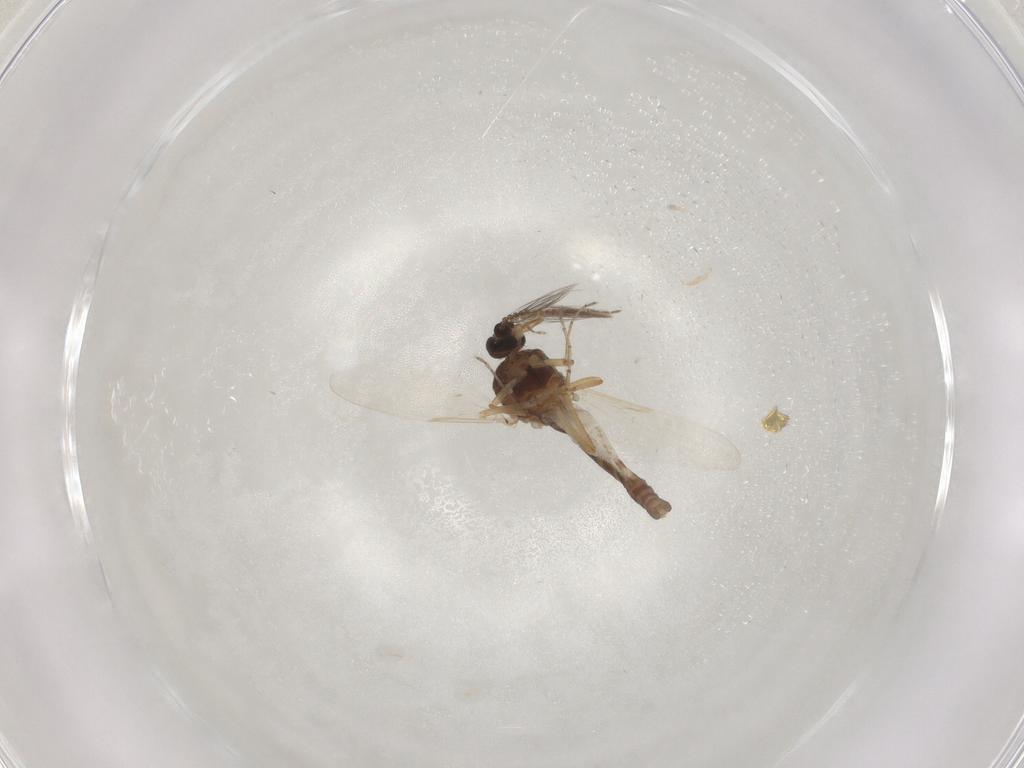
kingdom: Animalia
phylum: Arthropoda
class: Insecta
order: Diptera
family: Ceratopogonidae
